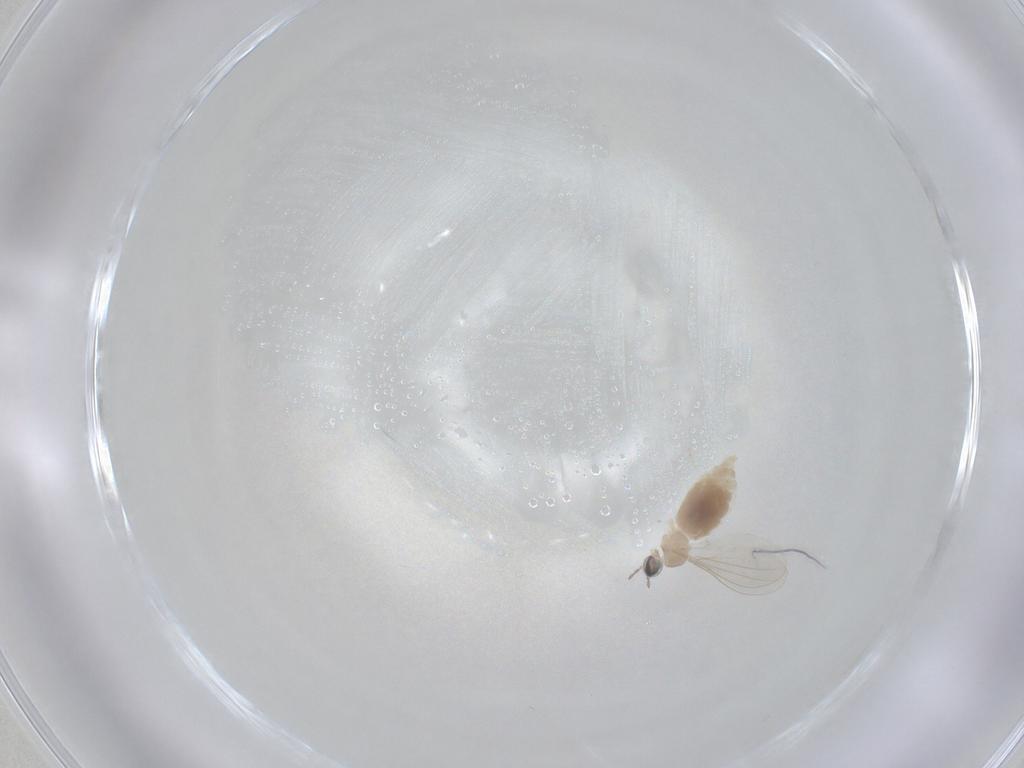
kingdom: Animalia
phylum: Arthropoda
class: Insecta
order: Diptera
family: Cecidomyiidae
